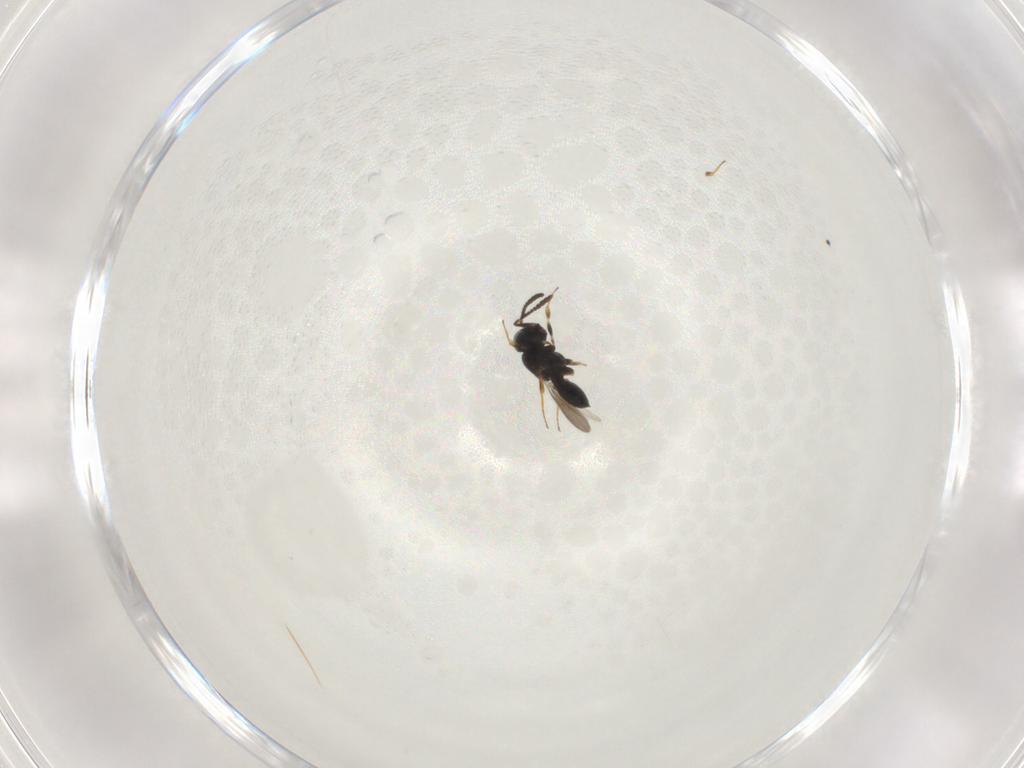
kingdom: Animalia
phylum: Arthropoda
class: Insecta
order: Hymenoptera
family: Scelionidae
